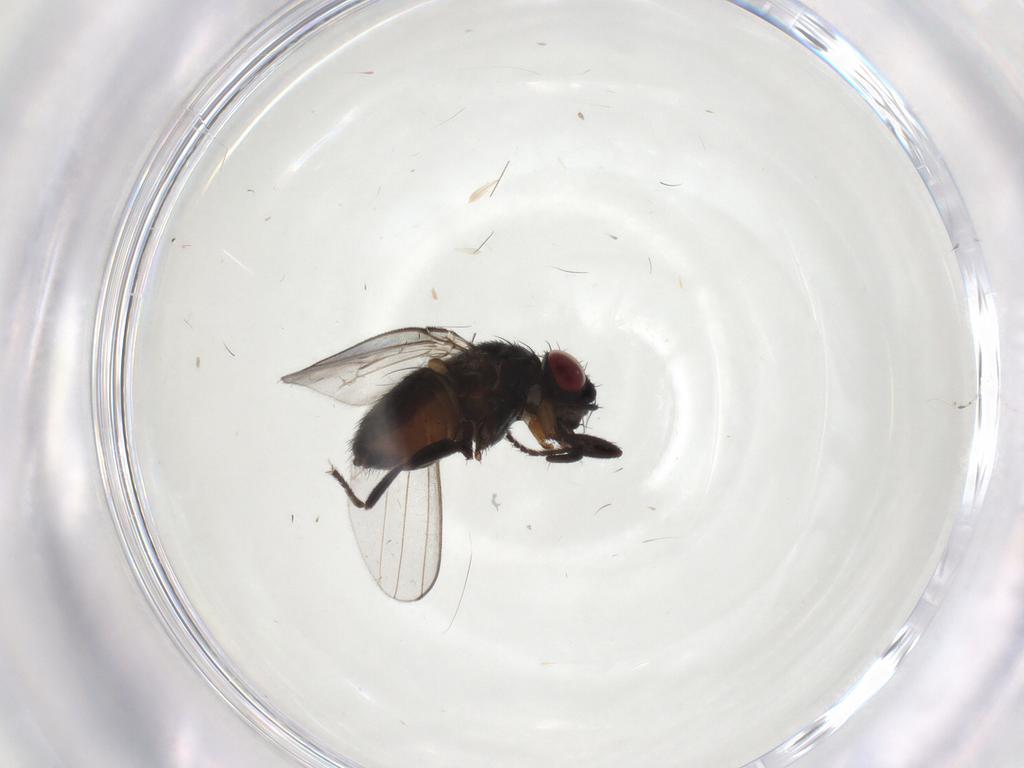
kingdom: Animalia
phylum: Arthropoda
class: Insecta
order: Diptera
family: Milichiidae
